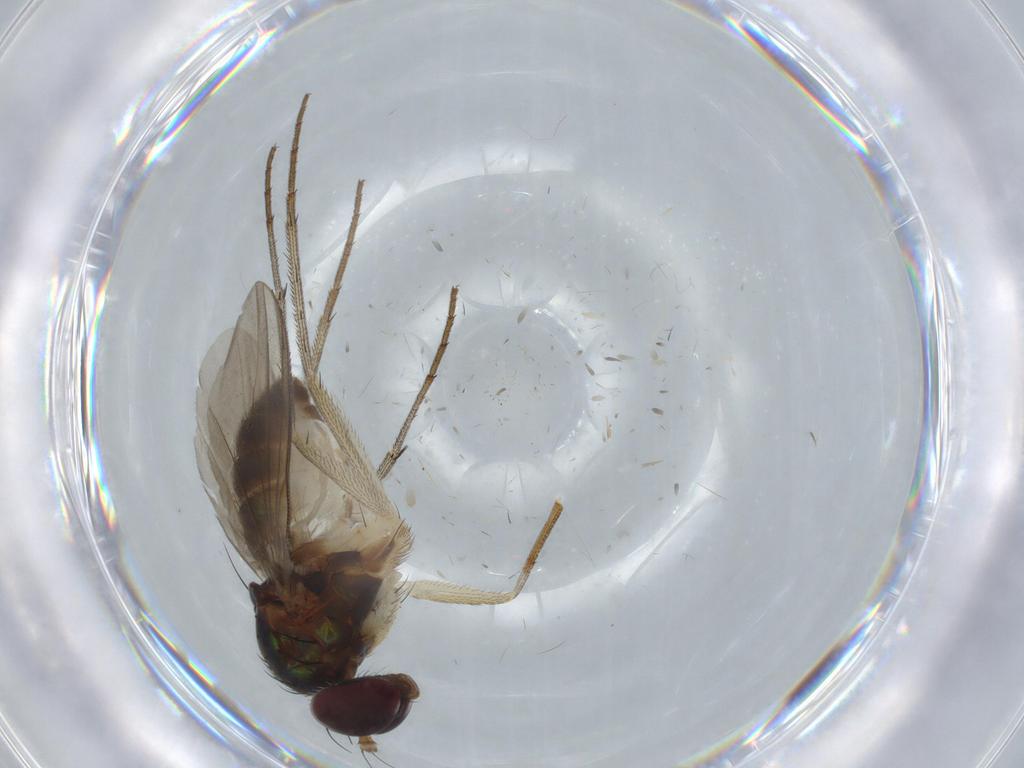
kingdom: Animalia
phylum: Arthropoda
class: Insecta
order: Diptera
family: Dolichopodidae
